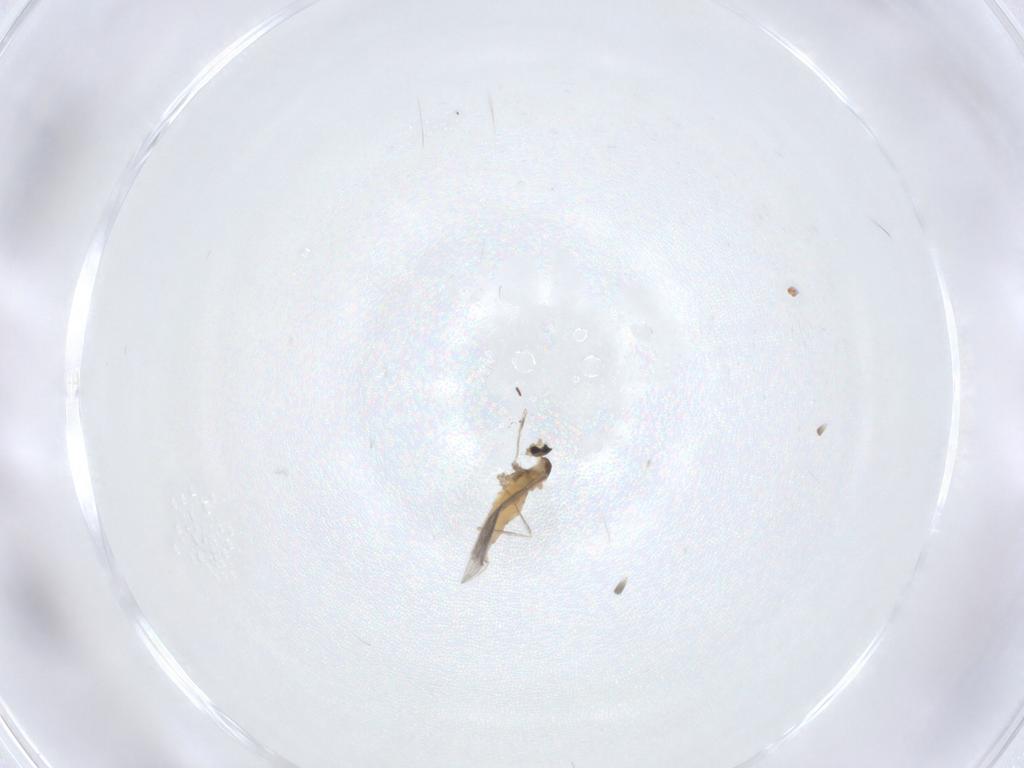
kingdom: Animalia
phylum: Arthropoda
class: Insecta
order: Diptera
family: Cecidomyiidae
